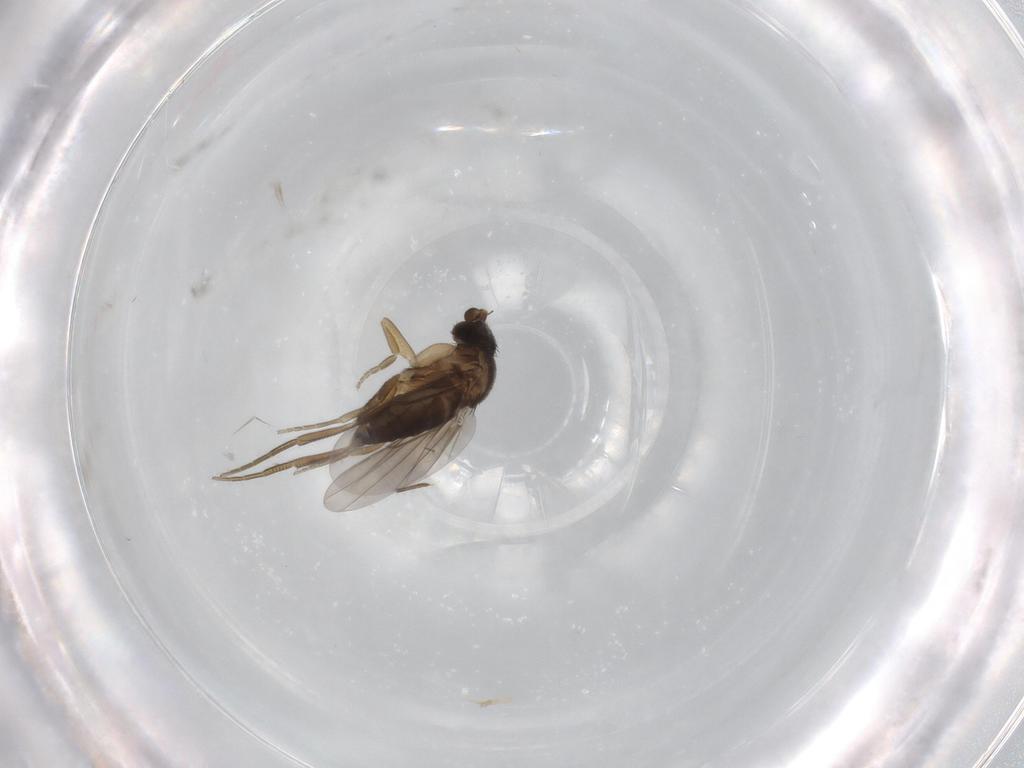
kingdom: Animalia
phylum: Arthropoda
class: Insecta
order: Diptera
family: Phoridae
